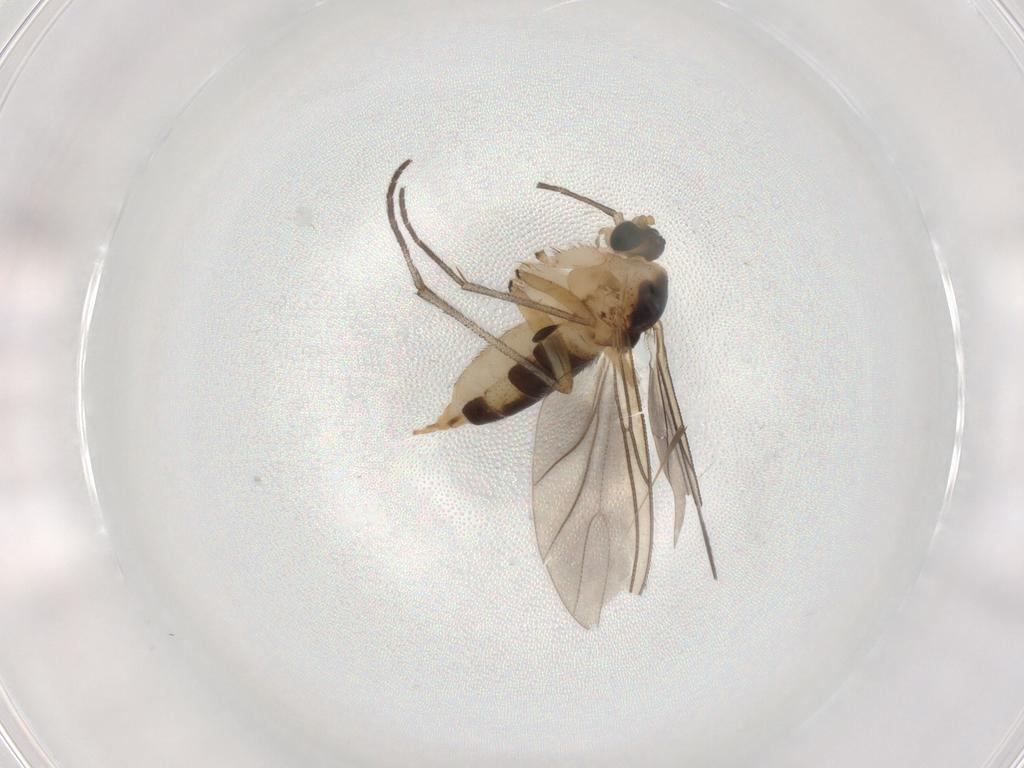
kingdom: Animalia
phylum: Arthropoda
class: Insecta
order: Diptera
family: Sciaridae
